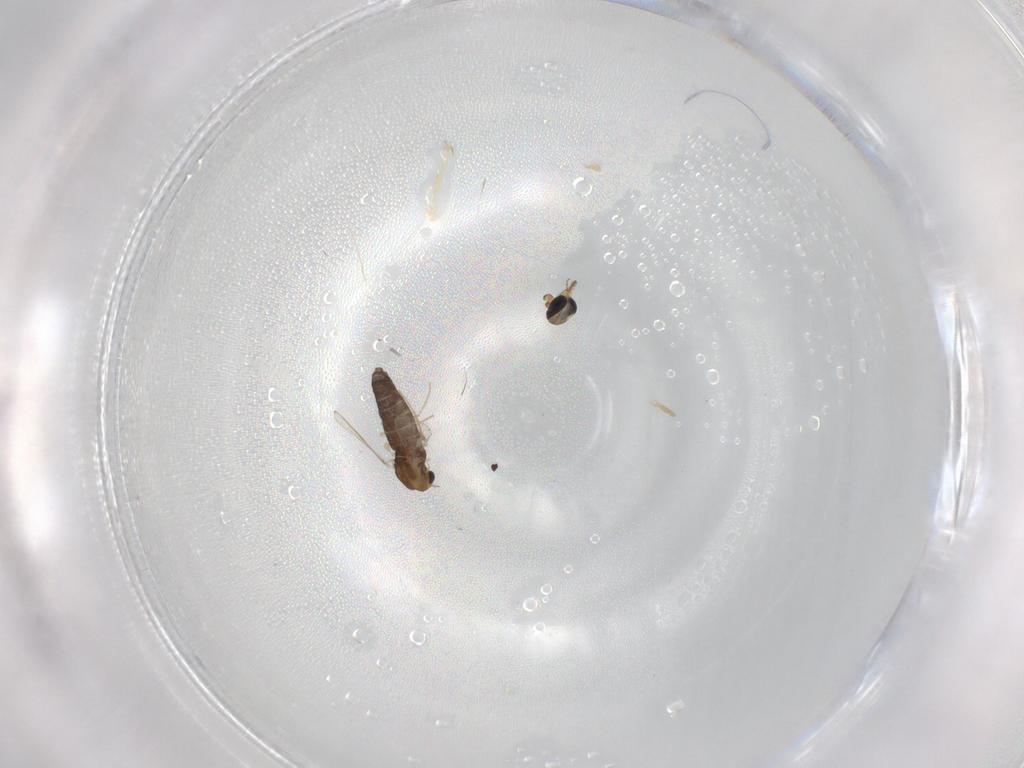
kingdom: Animalia
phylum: Arthropoda
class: Insecta
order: Diptera
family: Chironomidae
